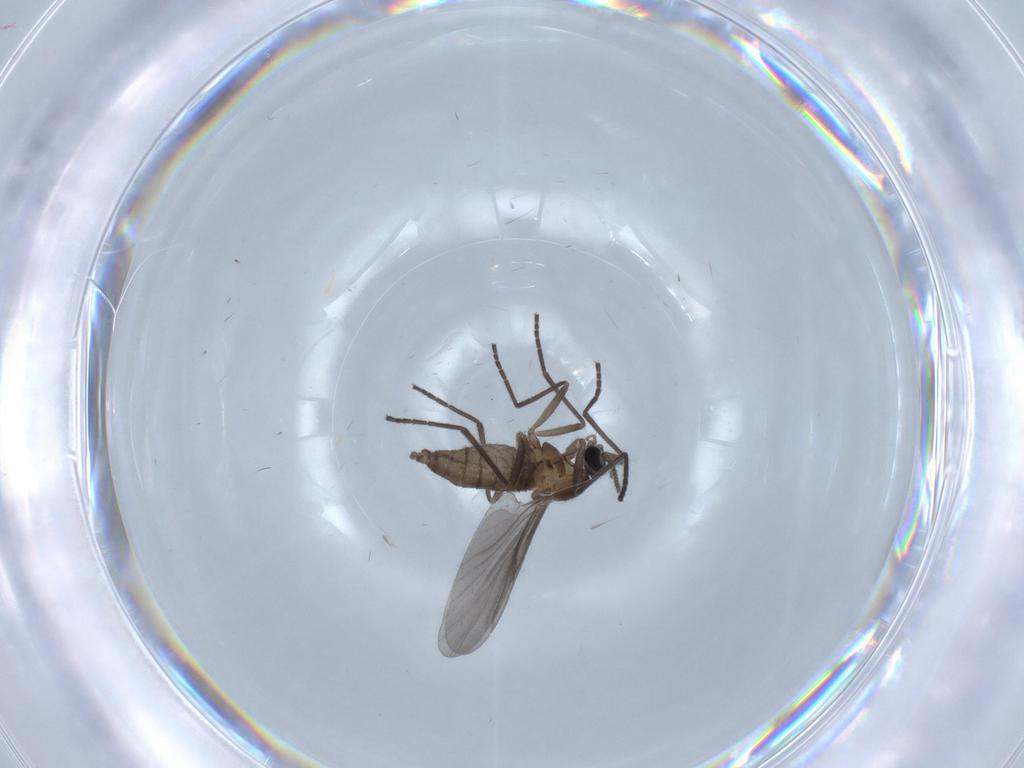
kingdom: Animalia
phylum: Arthropoda
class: Insecta
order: Diptera
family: Cecidomyiidae
